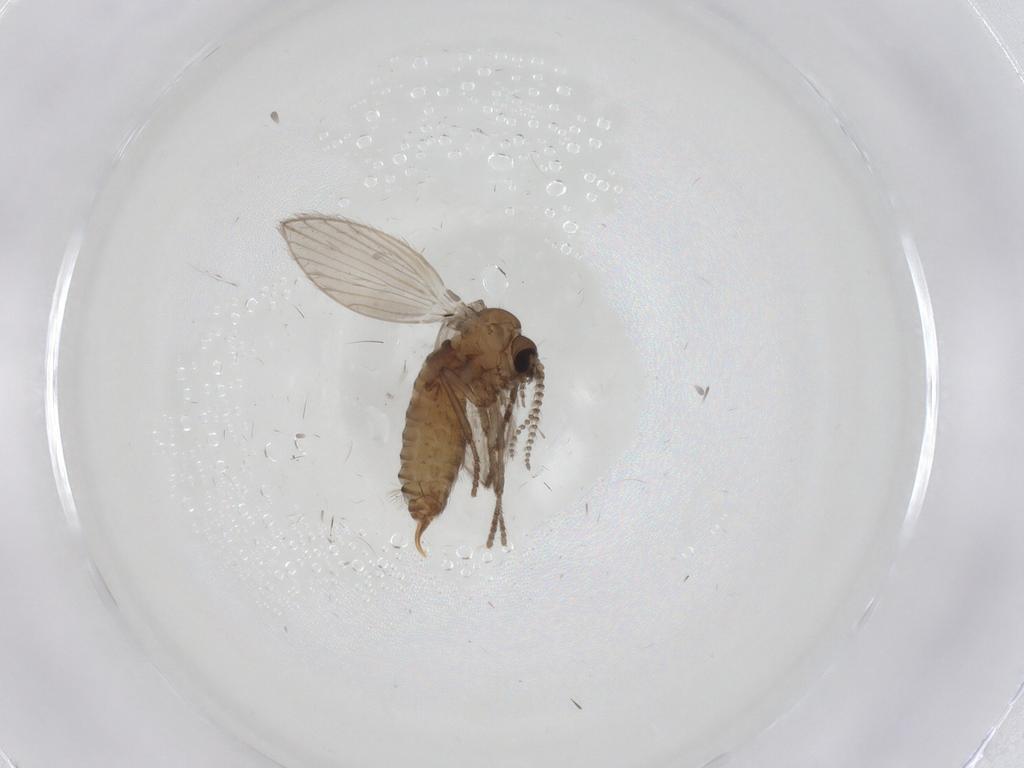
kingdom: Animalia
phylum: Arthropoda
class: Insecta
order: Diptera
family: Psychodidae
